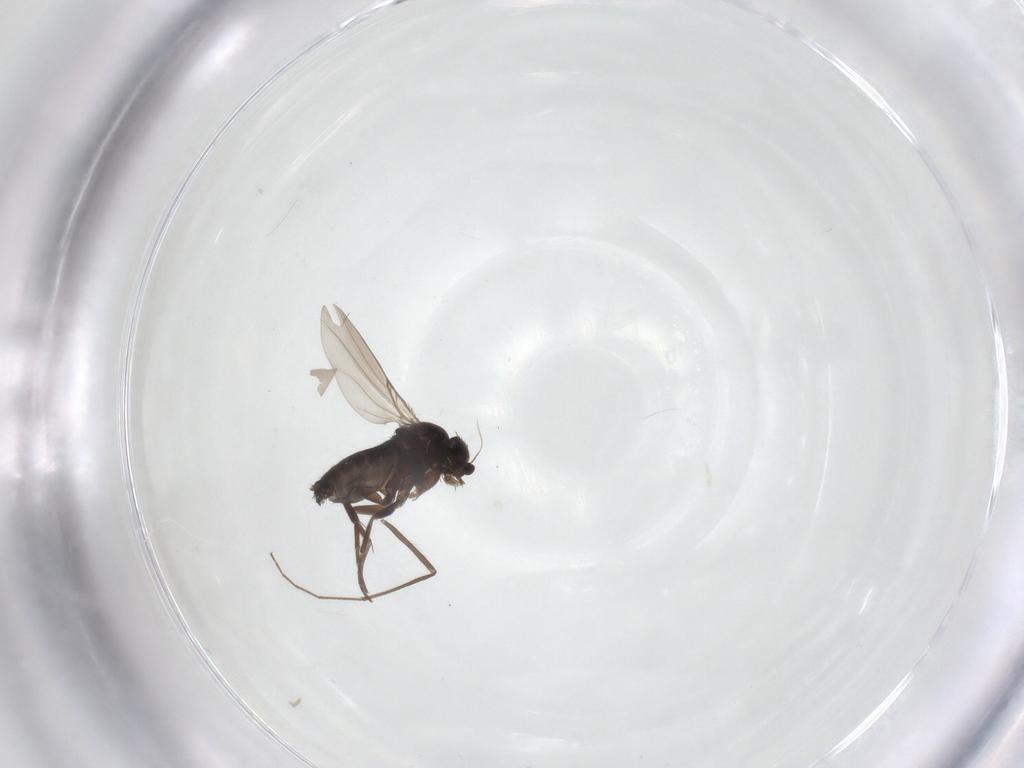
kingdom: Animalia
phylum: Arthropoda
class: Insecta
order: Diptera
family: Phoridae
